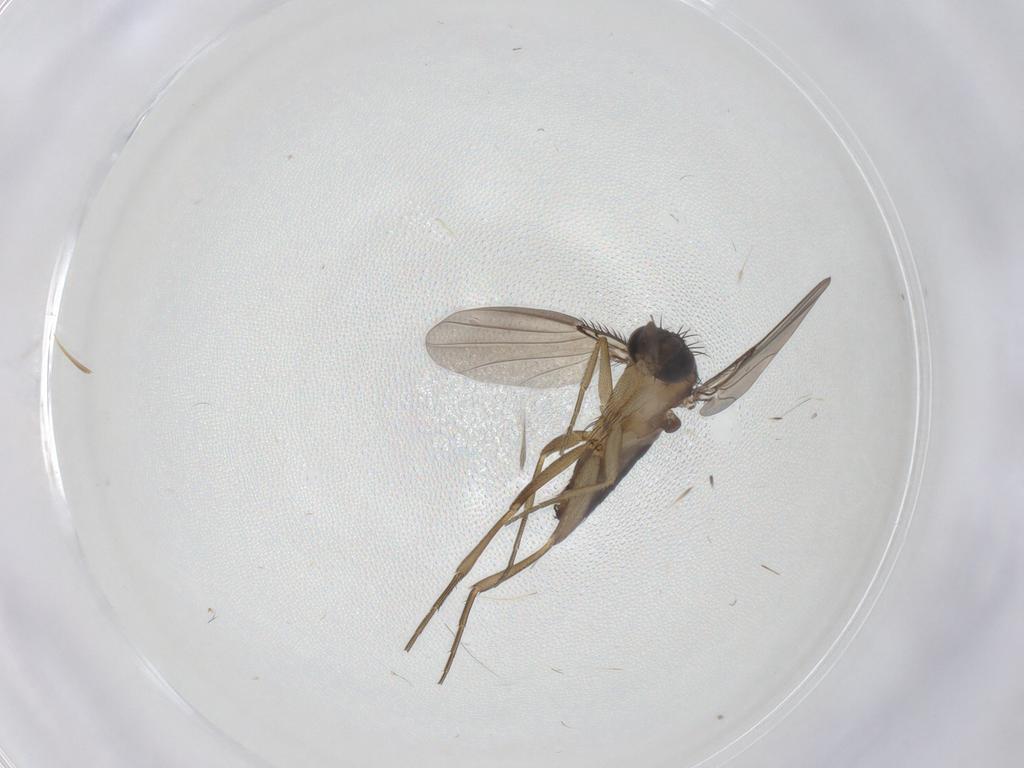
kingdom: Animalia
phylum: Arthropoda
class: Insecta
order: Diptera
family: Phoridae
